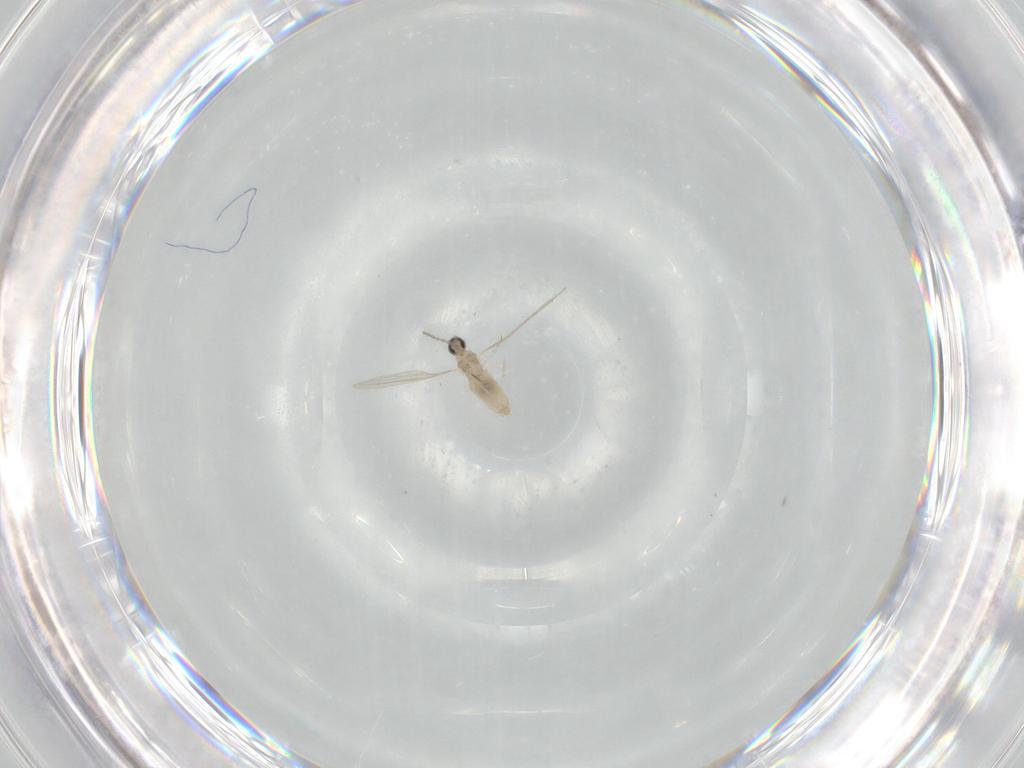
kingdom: Animalia
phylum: Arthropoda
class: Insecta
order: Diptera
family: Cecidomyiidae
